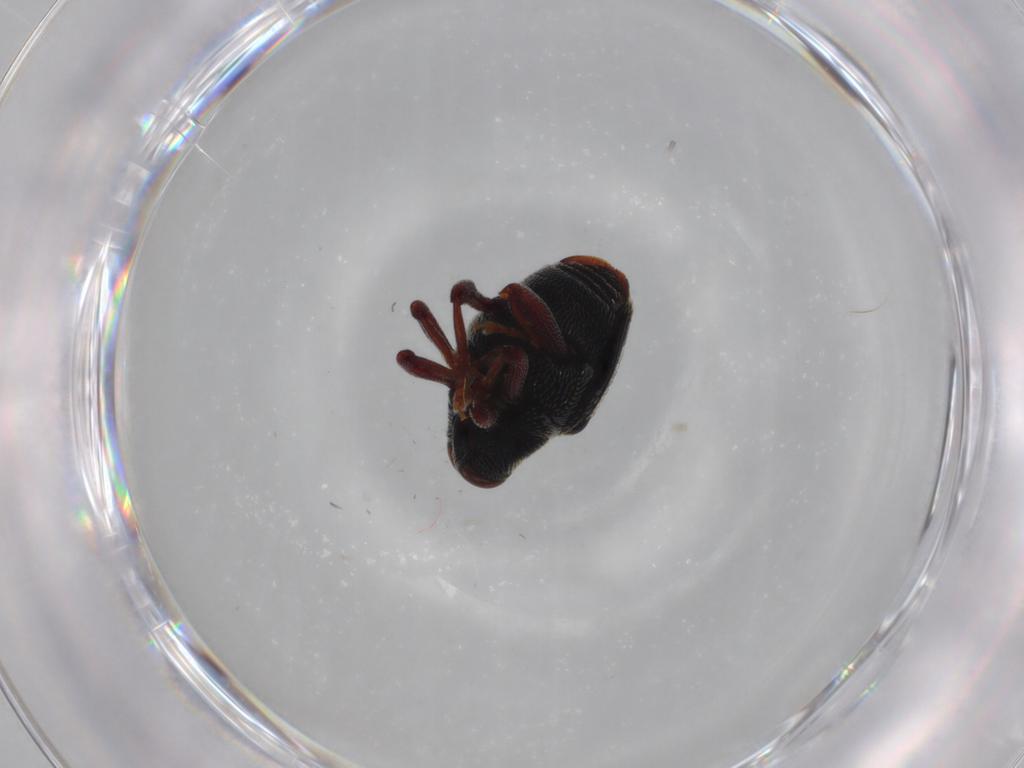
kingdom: Animalia
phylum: Arthropoda
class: Insecta
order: Coleoptera
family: Curculionidae
